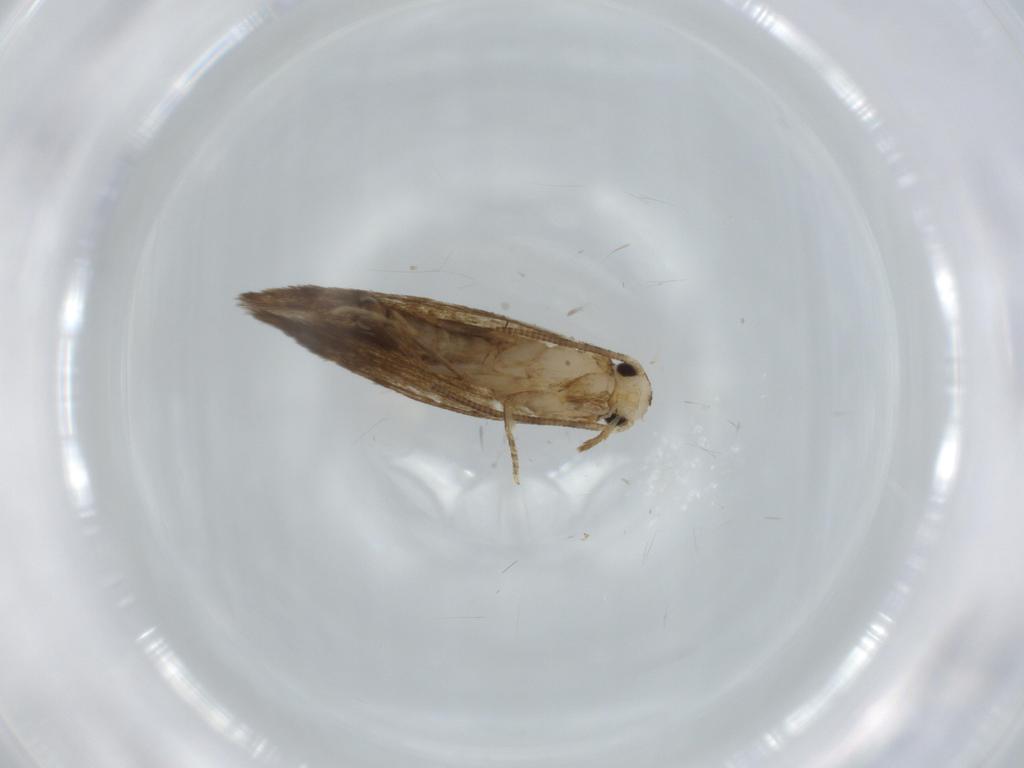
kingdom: Animalia
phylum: Arthropoda
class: Insecta
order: Lepidoptera
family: Tineidae
